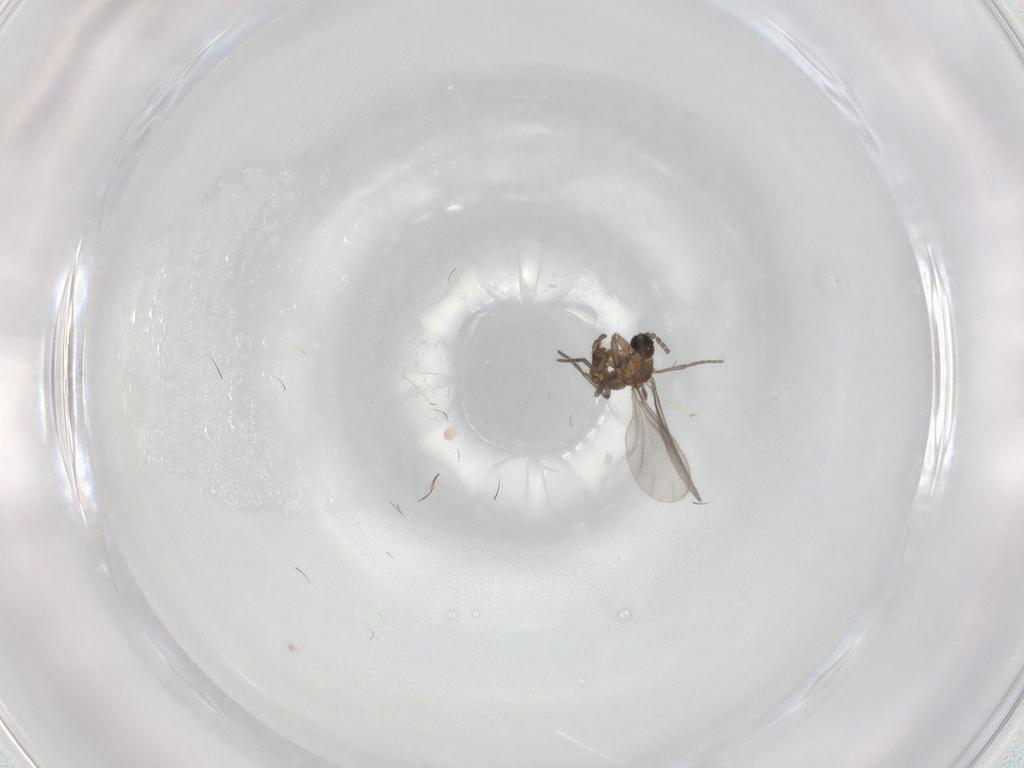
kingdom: Animalia
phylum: Arthropoda
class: Insecta
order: Diptera
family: Sciaridae
